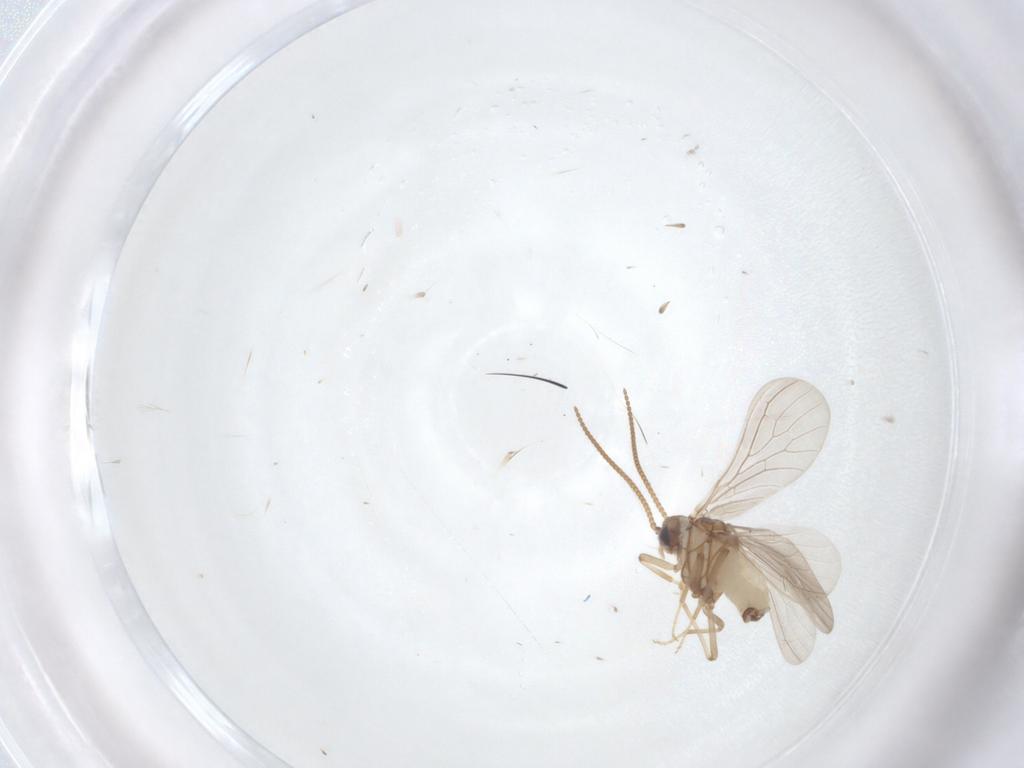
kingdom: Animalia
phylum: Arthropoda
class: Insecta
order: Neuroptera
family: Coniopterygidae
